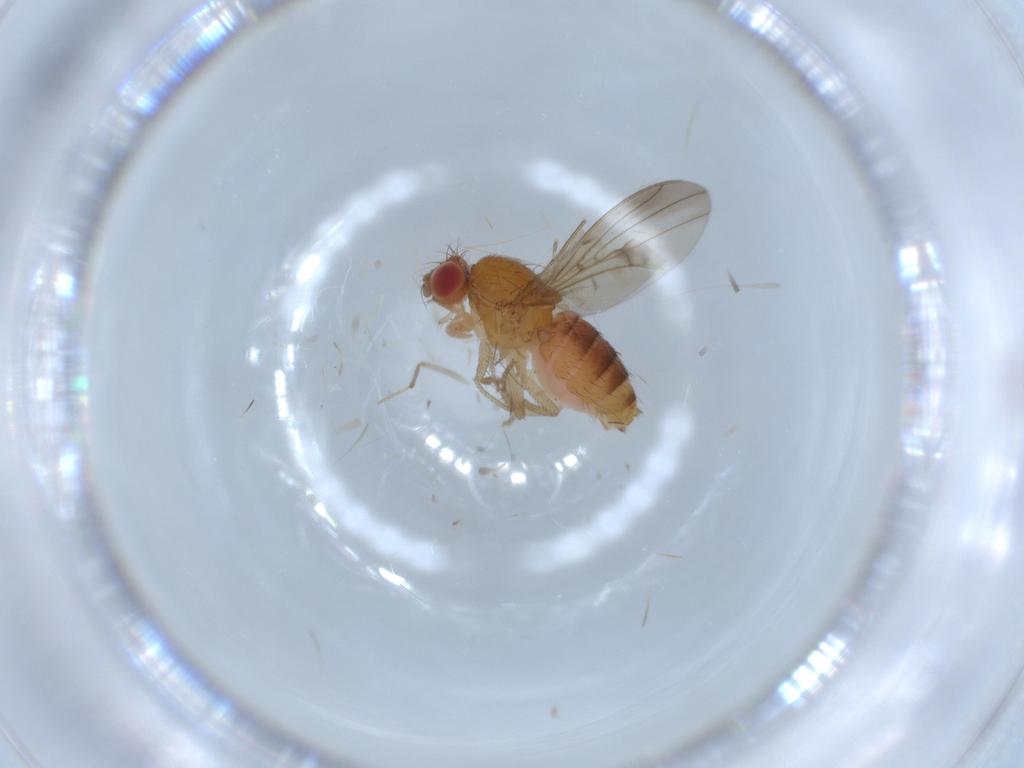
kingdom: Animalia
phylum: Arthropoda
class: Insecta
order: Diptera
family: Drosophilidae
